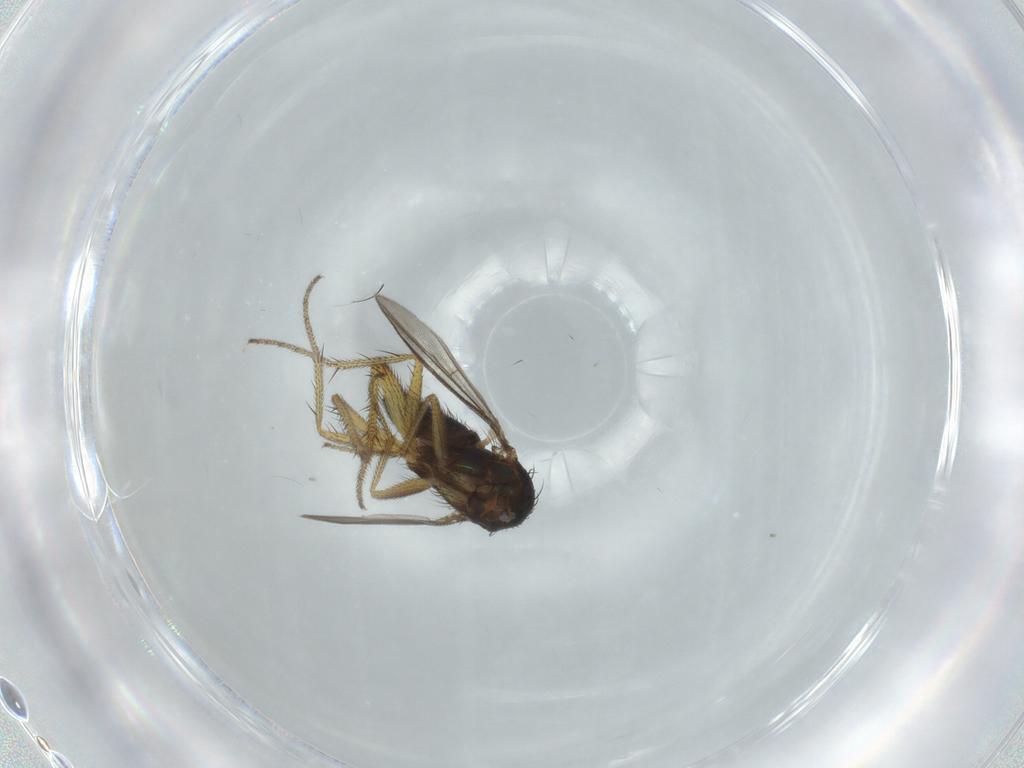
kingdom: Animalia
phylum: Arthropoda
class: Insecta
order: Diptera
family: Dolichopodidae
